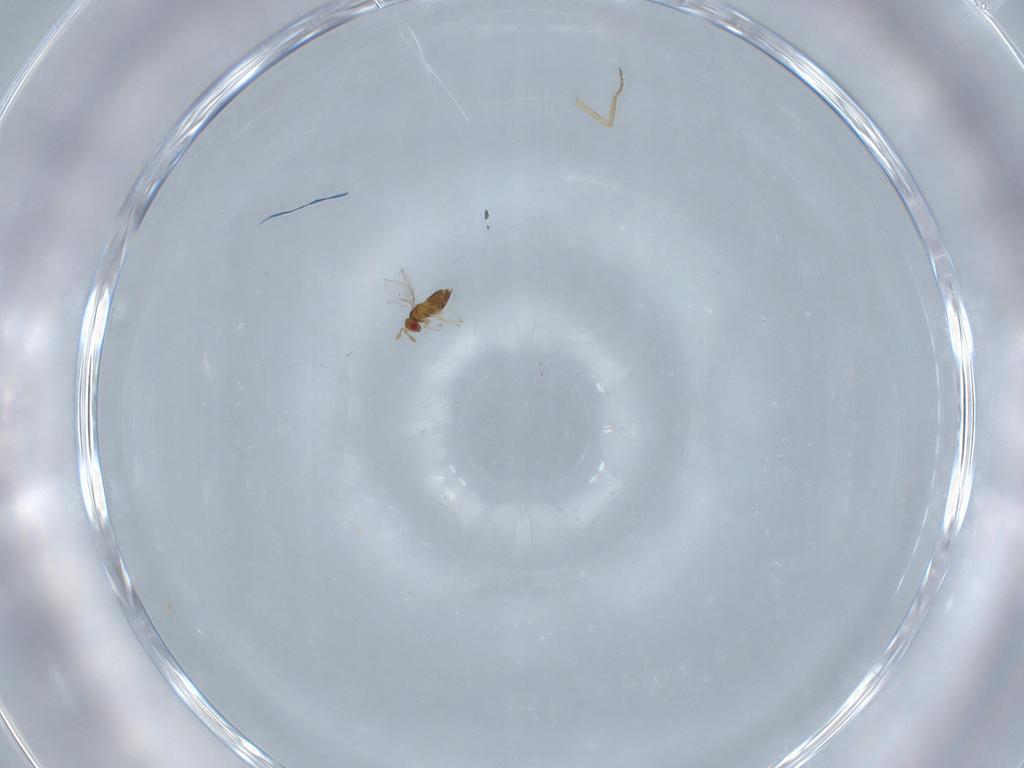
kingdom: Animalia
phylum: Arthropoda
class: Insecta
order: Hymenoptera
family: Trichogrammatidae
